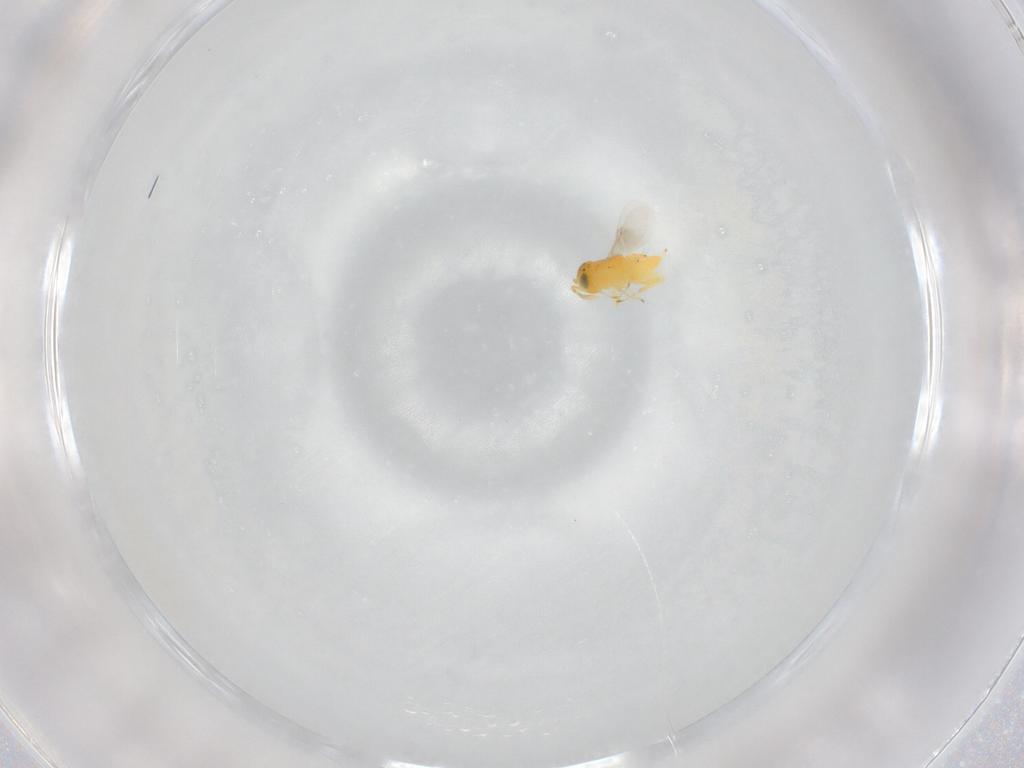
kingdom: Animalia
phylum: Arthropoda
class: Insecta
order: Hymenoptera
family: Encyrtidae
